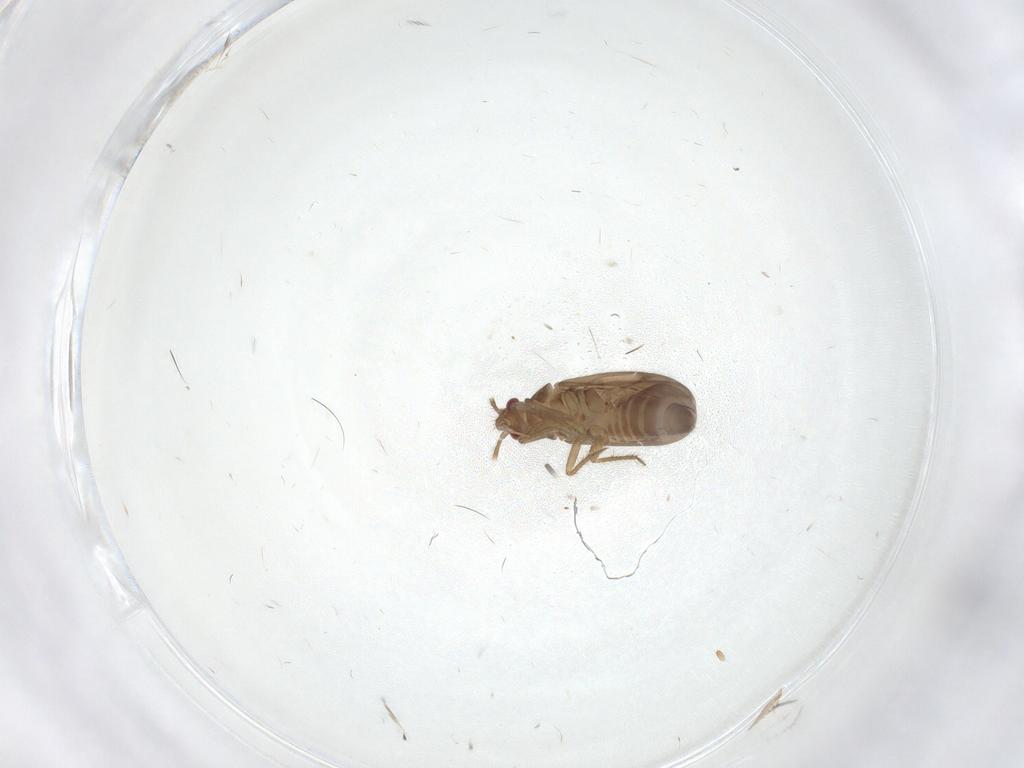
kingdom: Animalia
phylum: Arthropoda
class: Insecta
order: Hemiptera
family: Ceratocombidae
